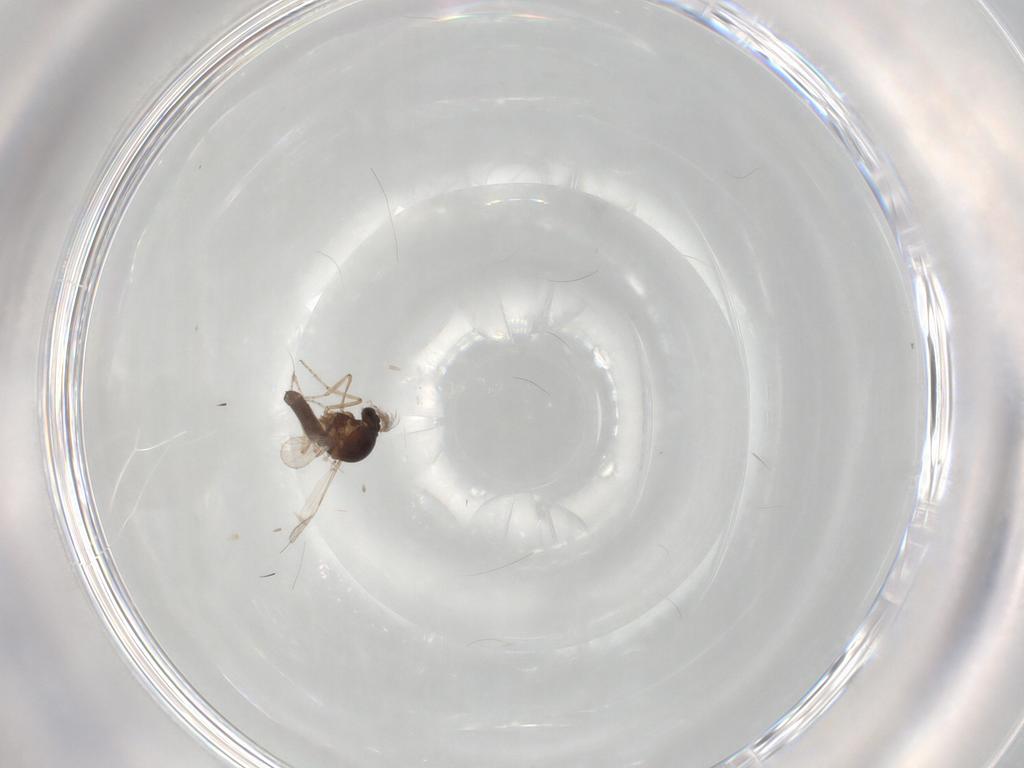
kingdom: Animalia
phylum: Arthropoda
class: Insecta
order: Diptera
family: Ceratopogonidae
